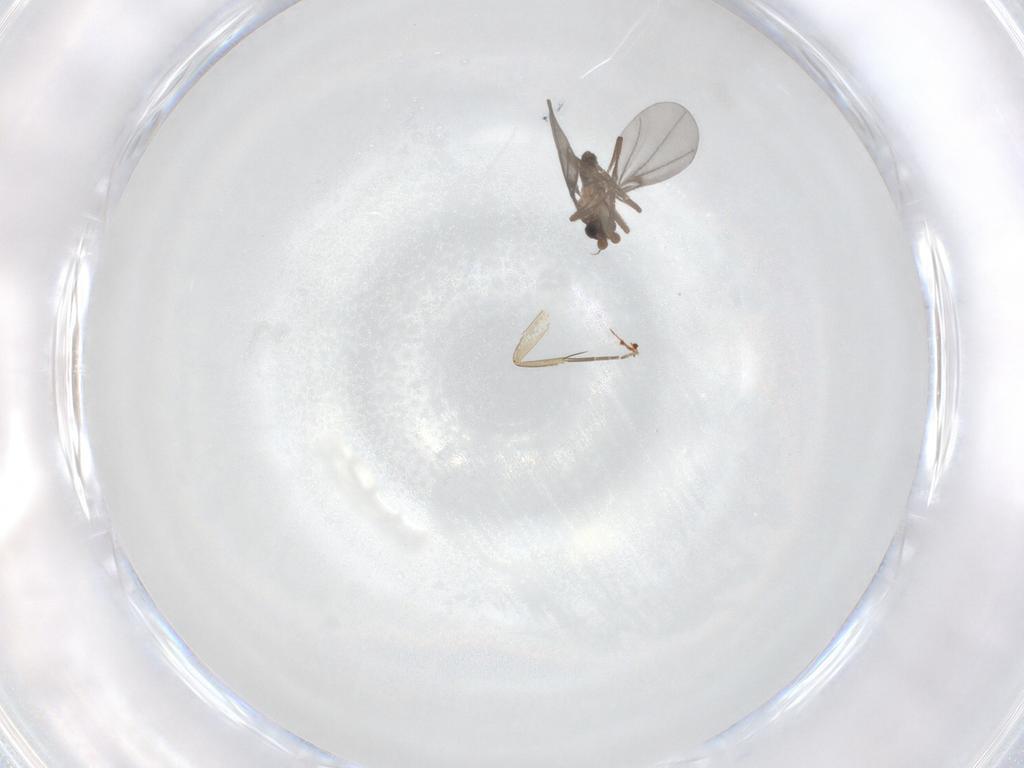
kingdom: Animalia
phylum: Arthropoda
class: Insecta
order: Diptera
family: Phoridae
